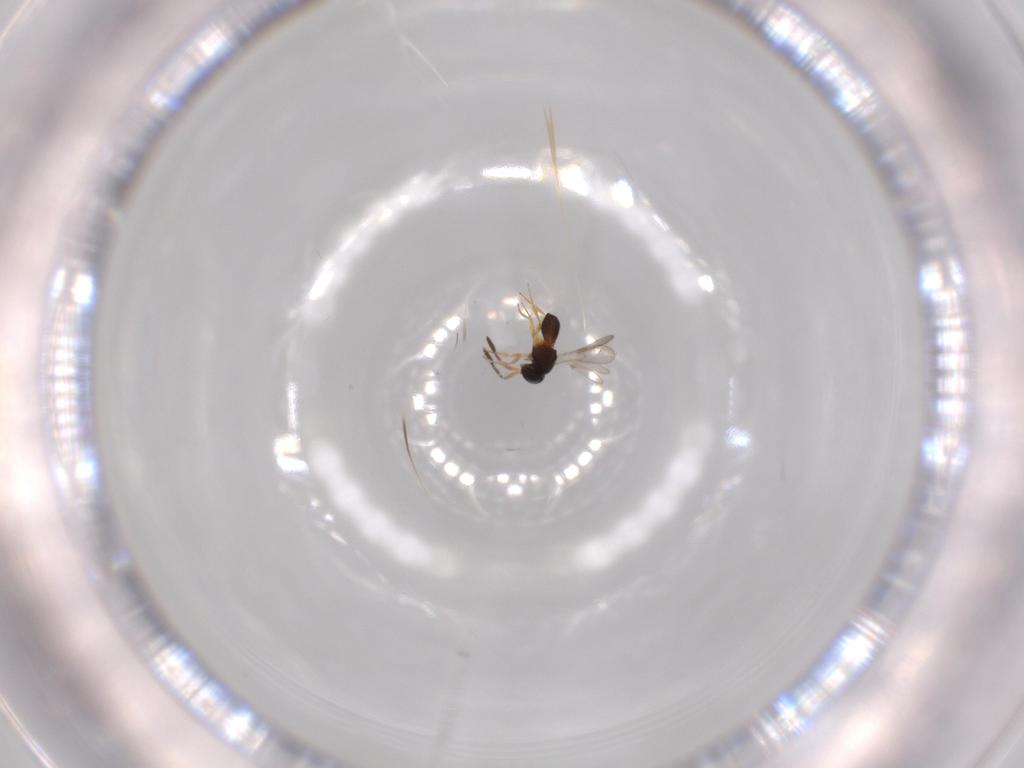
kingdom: Animalia
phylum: Arthropoda
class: Insecta
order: Hymenoptera
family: Scelionidae
